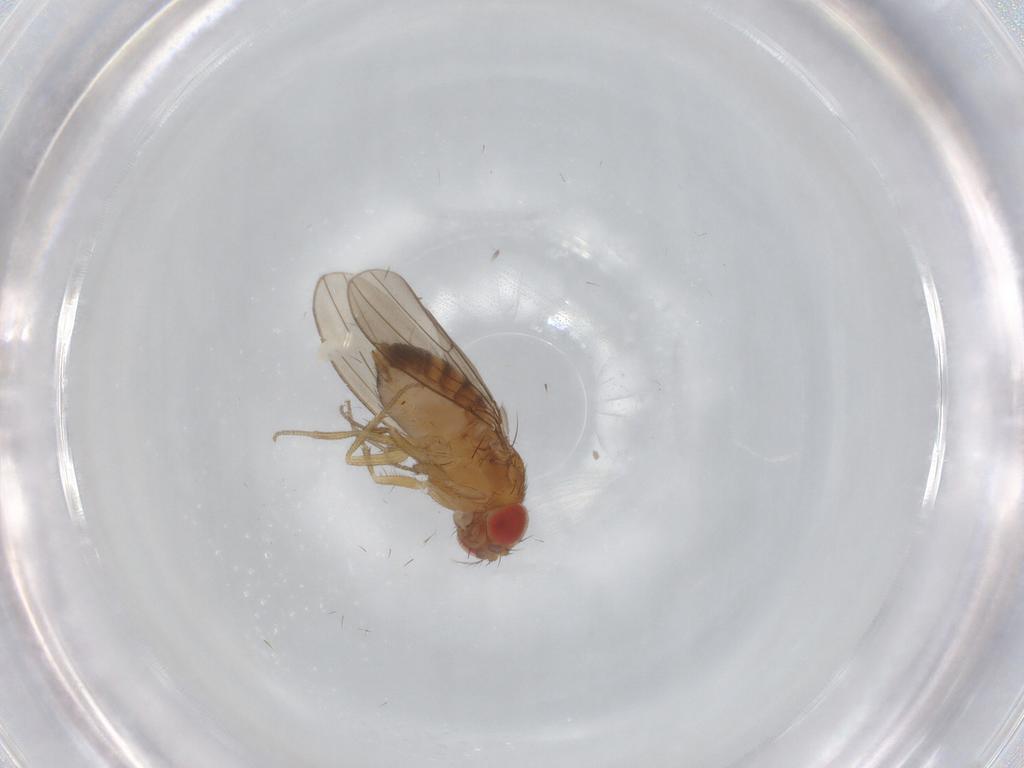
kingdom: Animalia
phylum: Arthropoda
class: Insecta
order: Diptera
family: Drosophilidae
